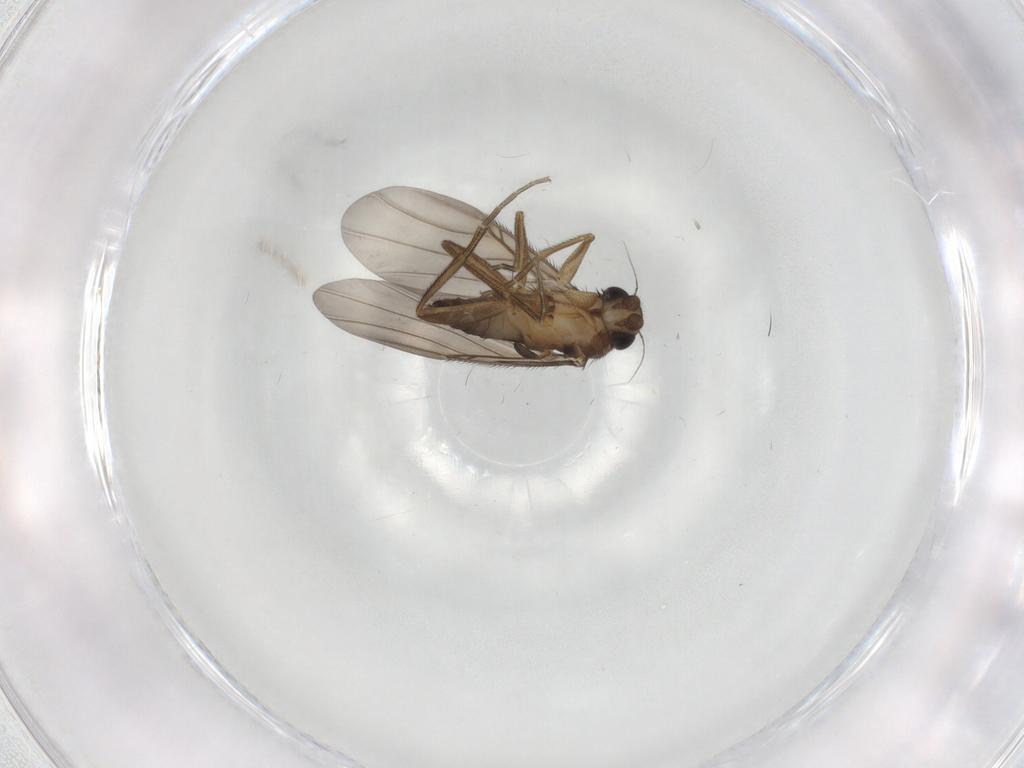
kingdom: Animalia
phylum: Arthropoda
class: Insecta
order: Diptera
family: Phoridae
